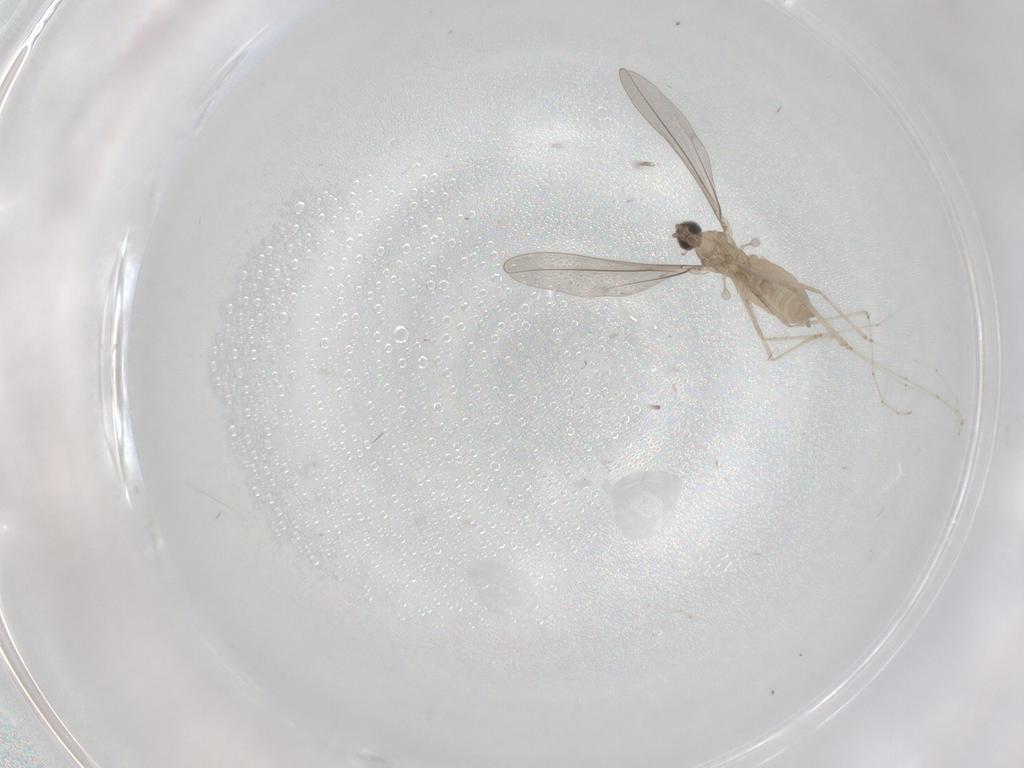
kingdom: Animalia
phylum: Arthropoda
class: Insecta
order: Diptera
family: Cecidomyiidae
